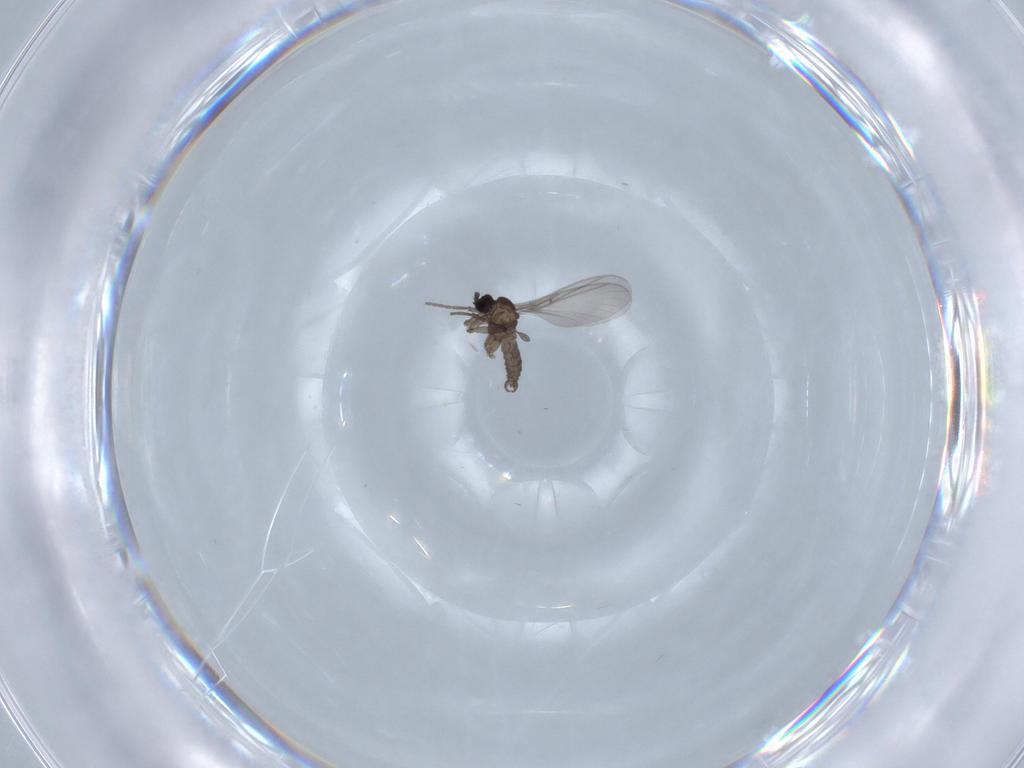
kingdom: Animalia
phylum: Arthropoda
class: Insecta
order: Diptera
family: Sciaridae
